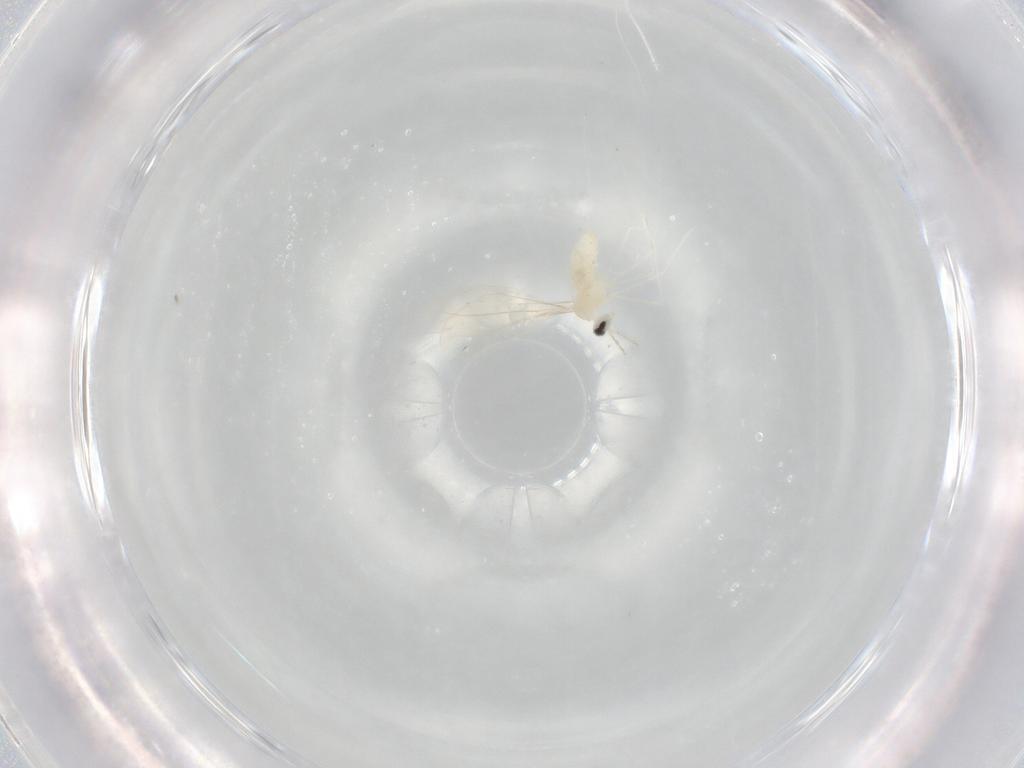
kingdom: Animalia
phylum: Arthropoda
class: Insecta
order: Diptera
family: Cecidomyiidae
